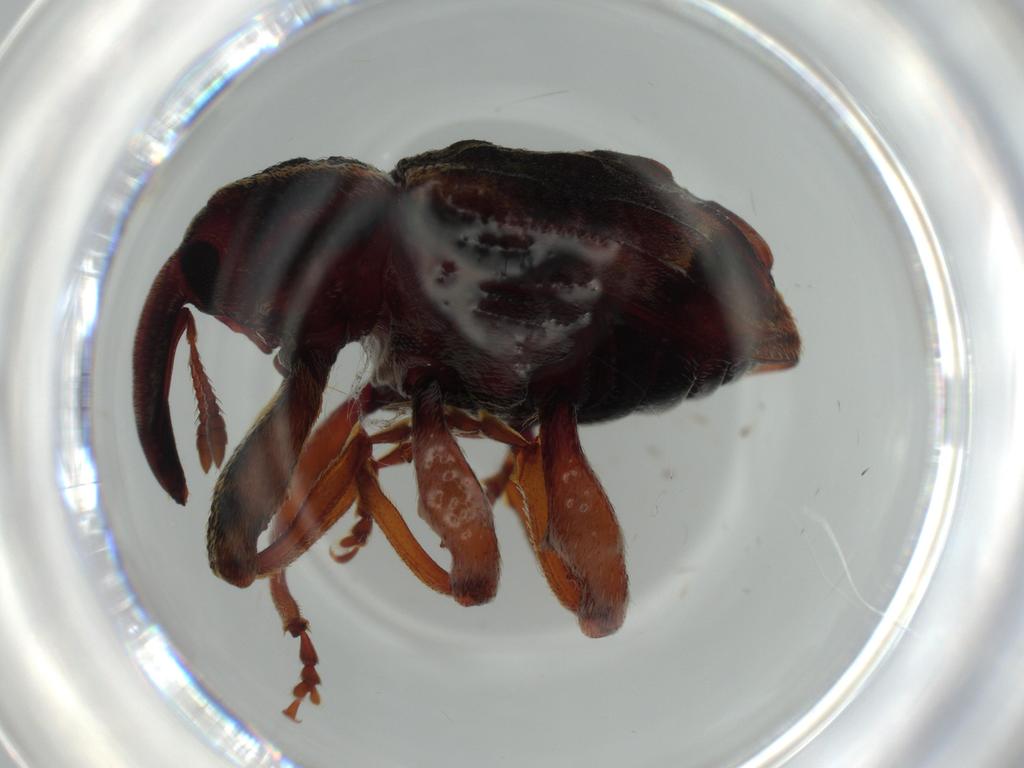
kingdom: Animalia
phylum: Arthropoda
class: Insecta
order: Coleoptera
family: Curculionidae
